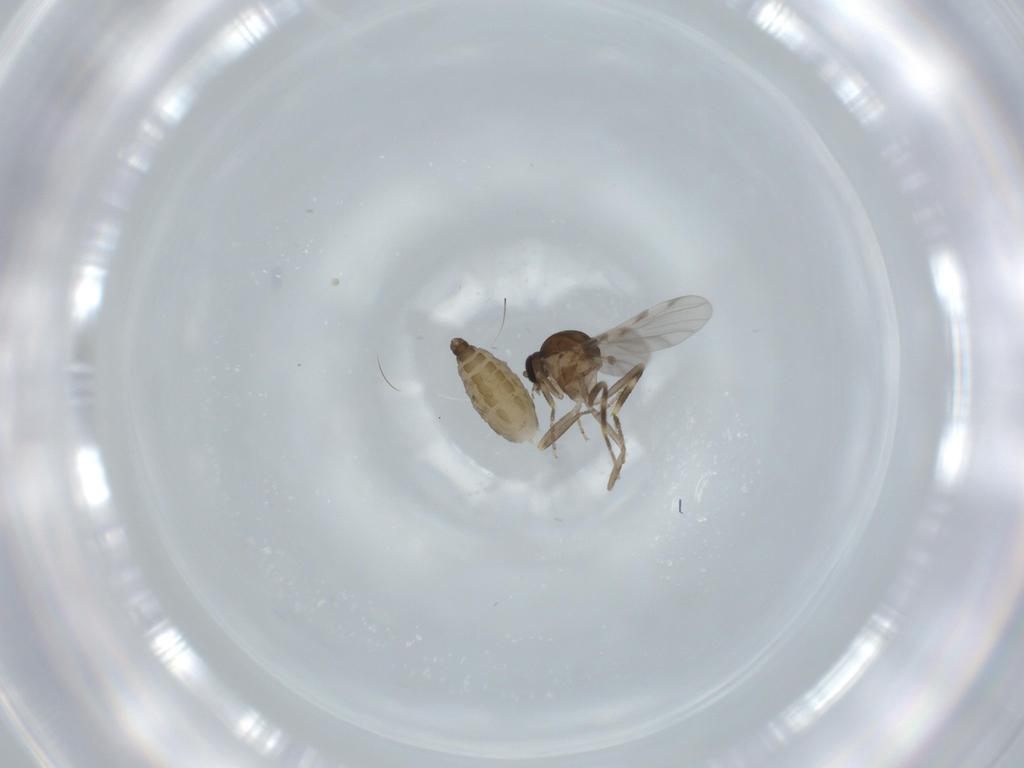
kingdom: Animalia
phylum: Arthropoda
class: Insecta
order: Diptera
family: Ceratopogonidae
